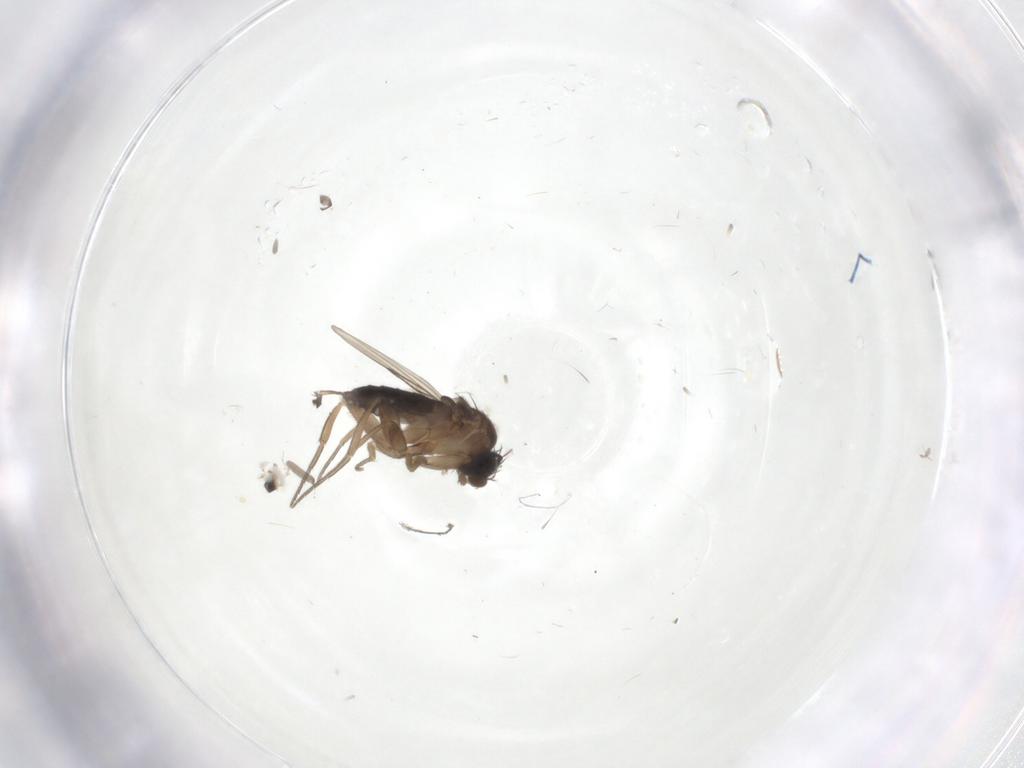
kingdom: Animalia
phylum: Arthropoda
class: Insecta
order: Diptera
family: Phoridae
